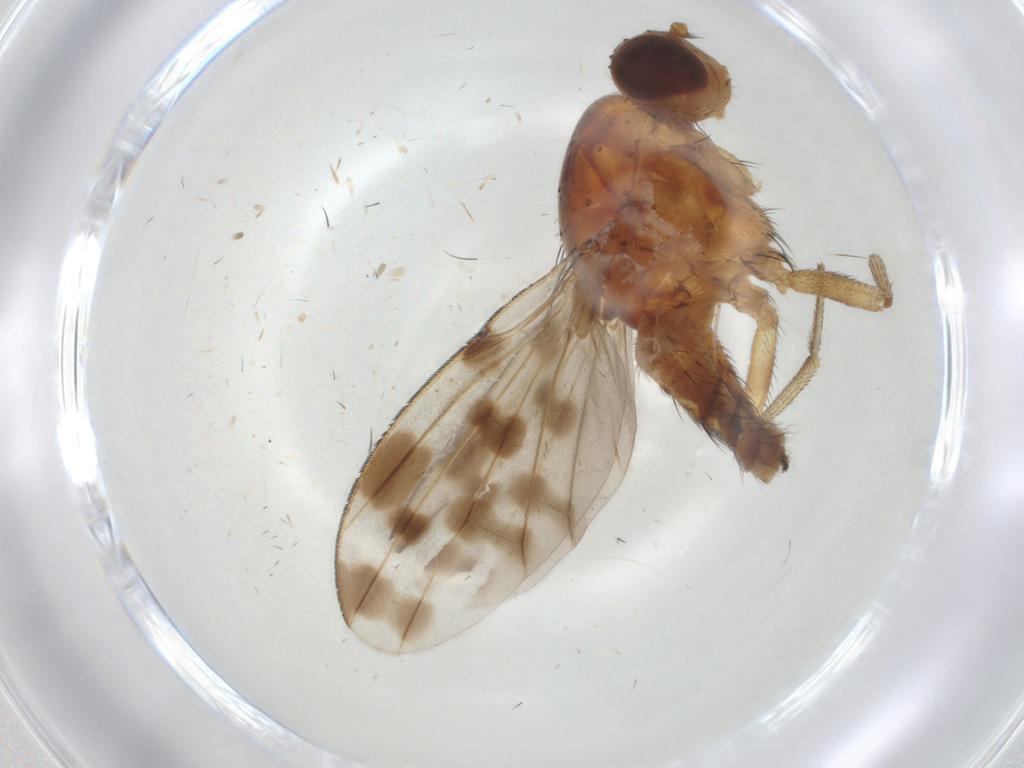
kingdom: Animalia
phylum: Arthropoda
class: Insecta
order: Diptera
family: Lauxaniidae
